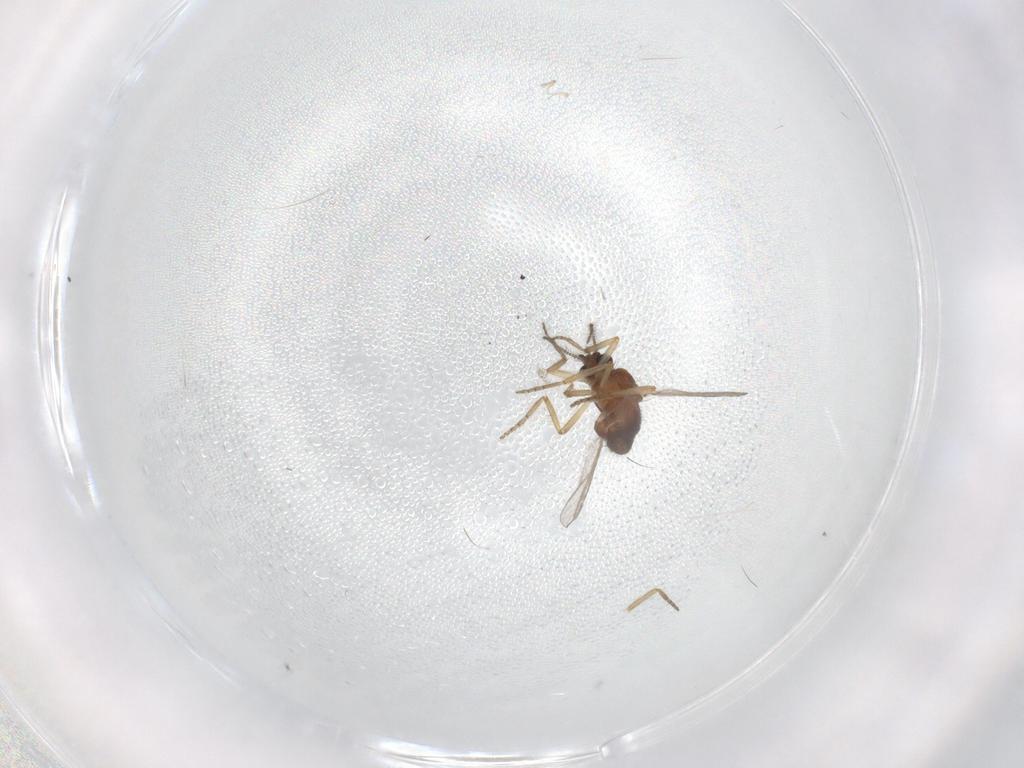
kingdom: Animalia
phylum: Arthropoda
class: Insecta
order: Diptera
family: Ceratopogonidae
